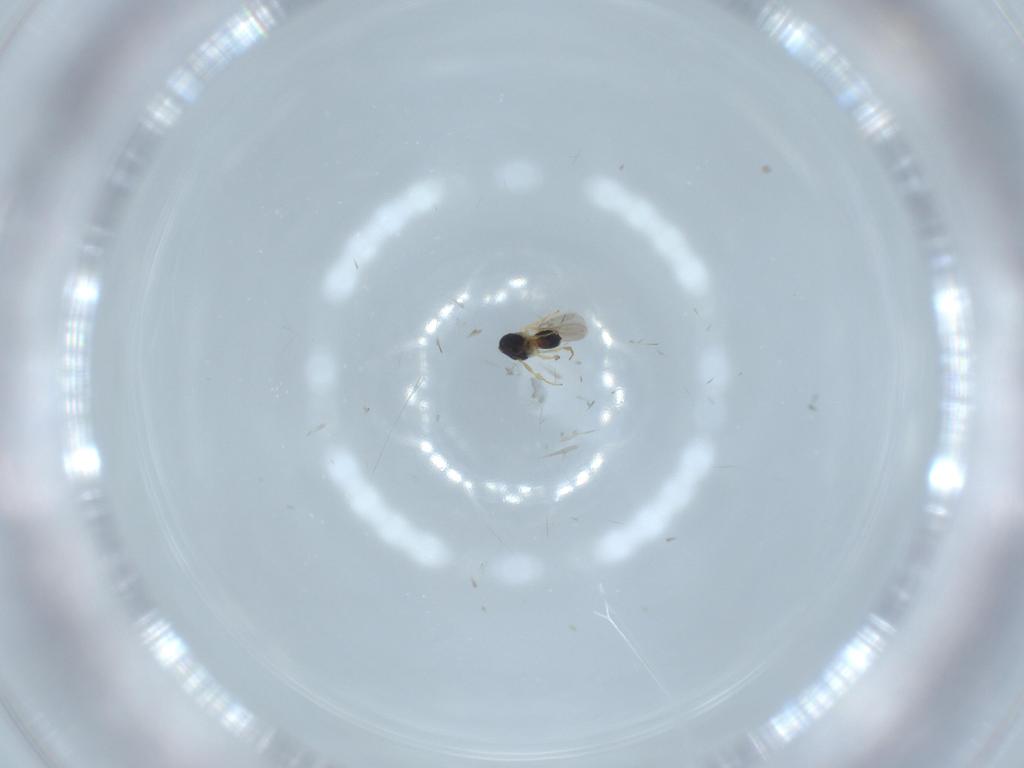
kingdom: Animalia
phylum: Arthropoda
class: Insecta
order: Hymenoptera
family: Scelionidae
